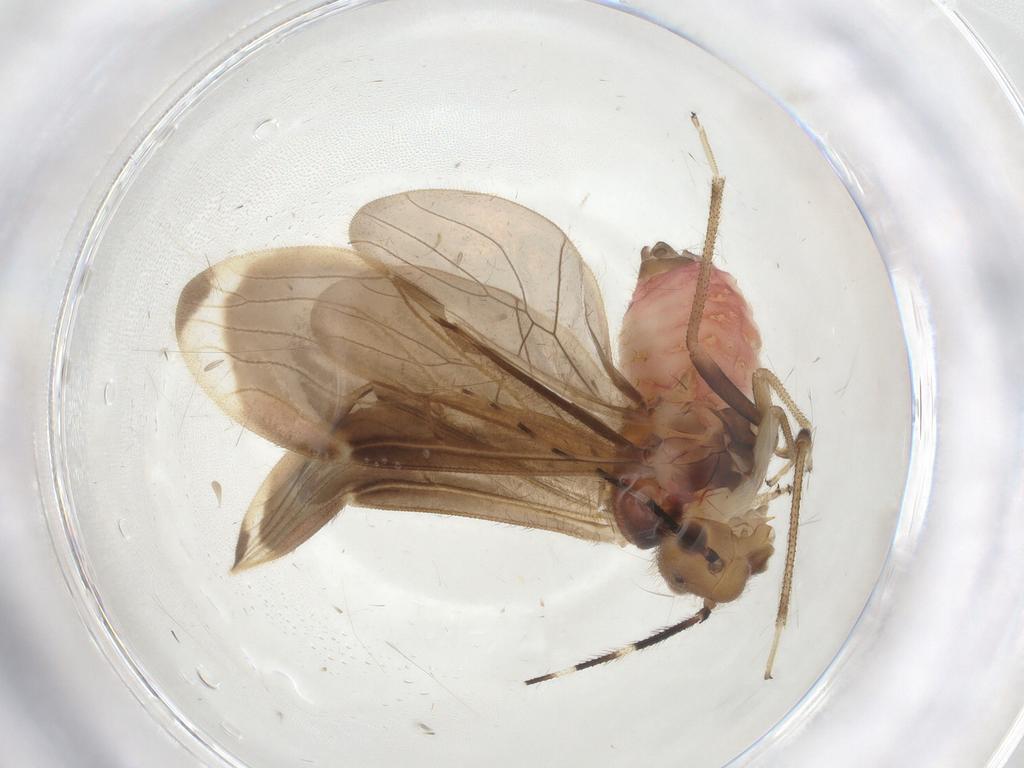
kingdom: Animalia
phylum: Arthropoda
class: Insecta
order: Psocodea
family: Amphipsocidae
